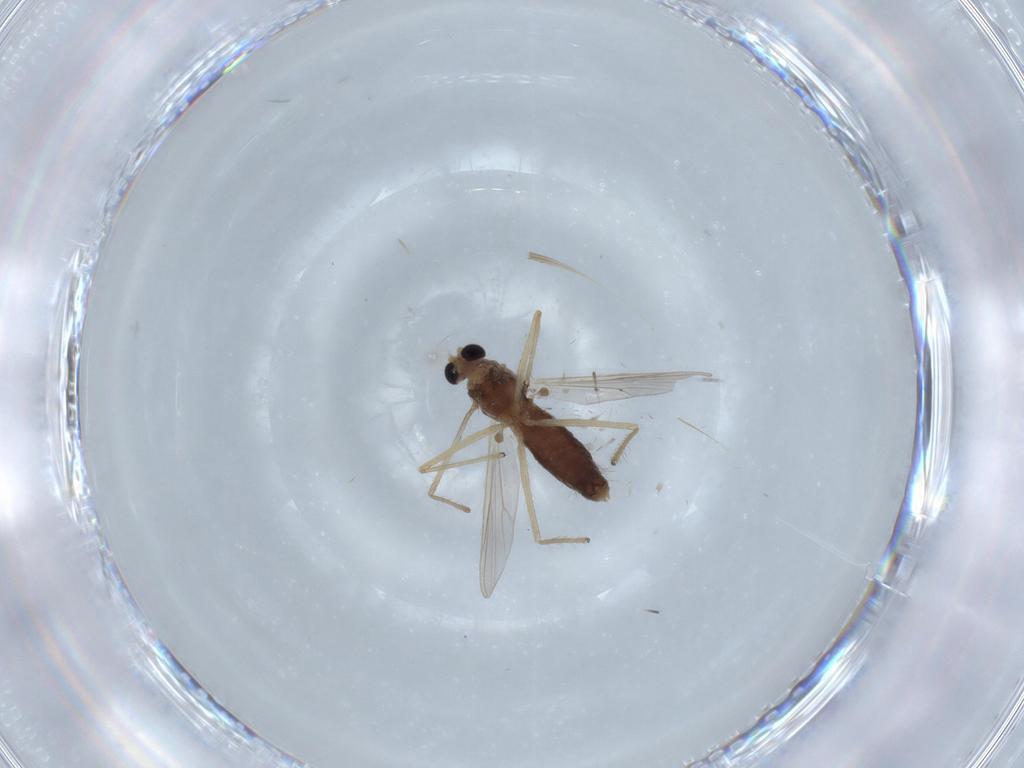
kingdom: Animalia
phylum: Arthropoda
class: Insecta
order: Diptera
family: Chironomidae
